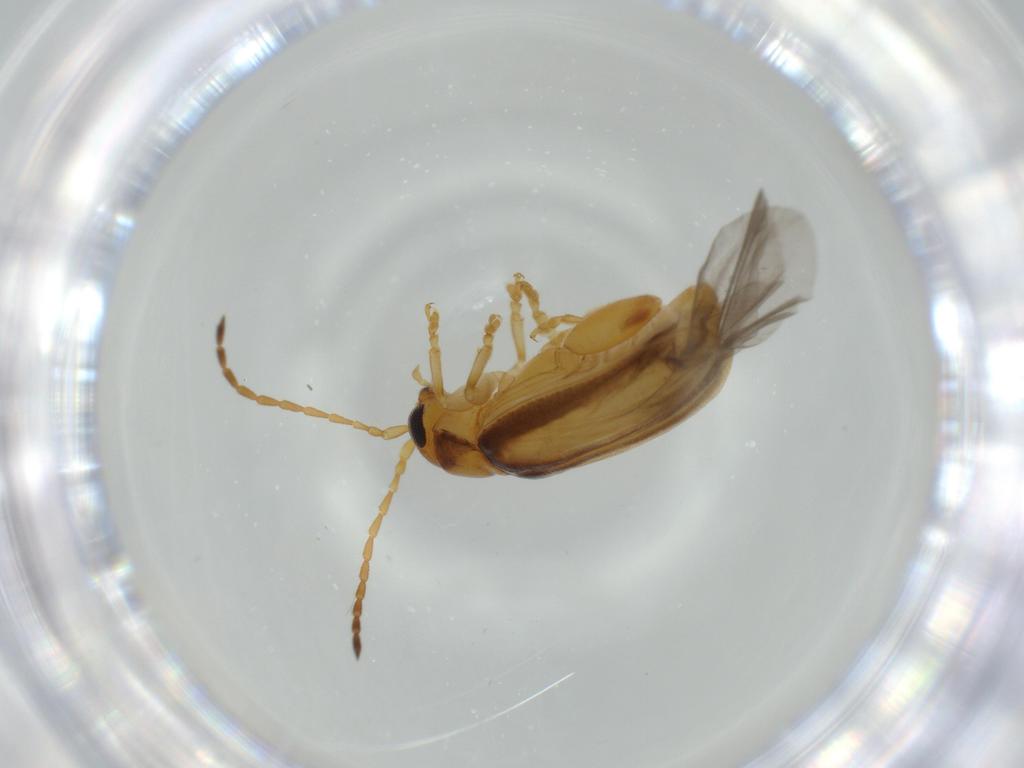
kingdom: Animalia
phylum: Arthropoda
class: Insecta
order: Coleoptera
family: Chrysomelidae
